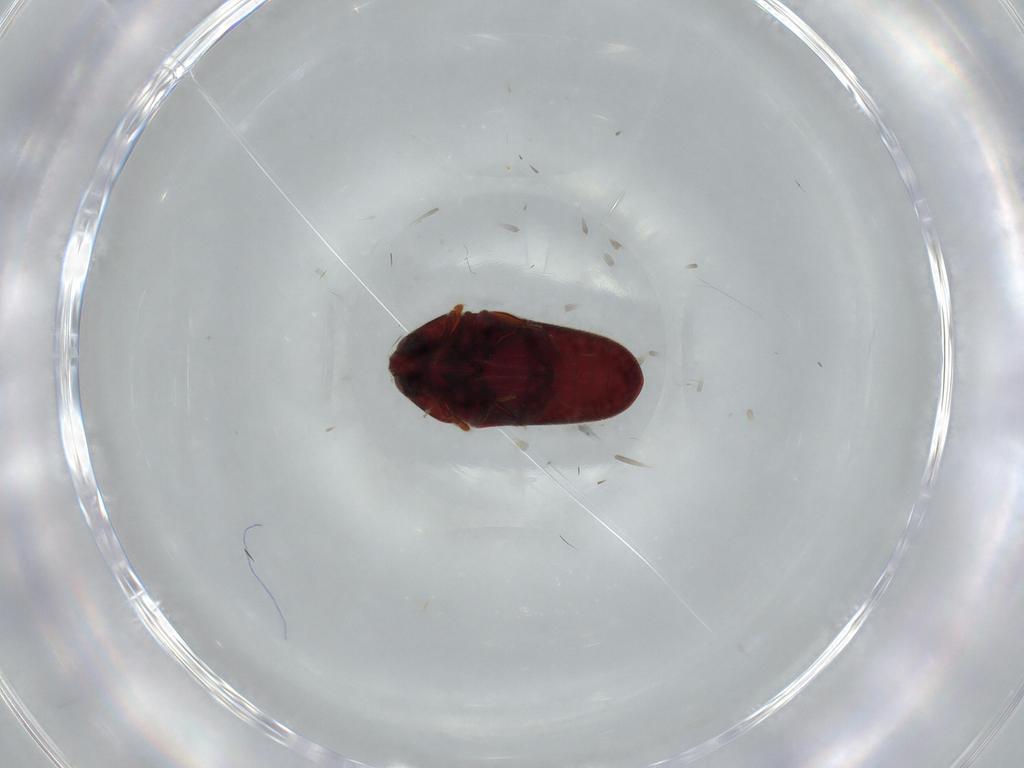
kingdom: Animalia
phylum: Arthropoda
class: Insecta
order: Coleoptera
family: Throscidae
